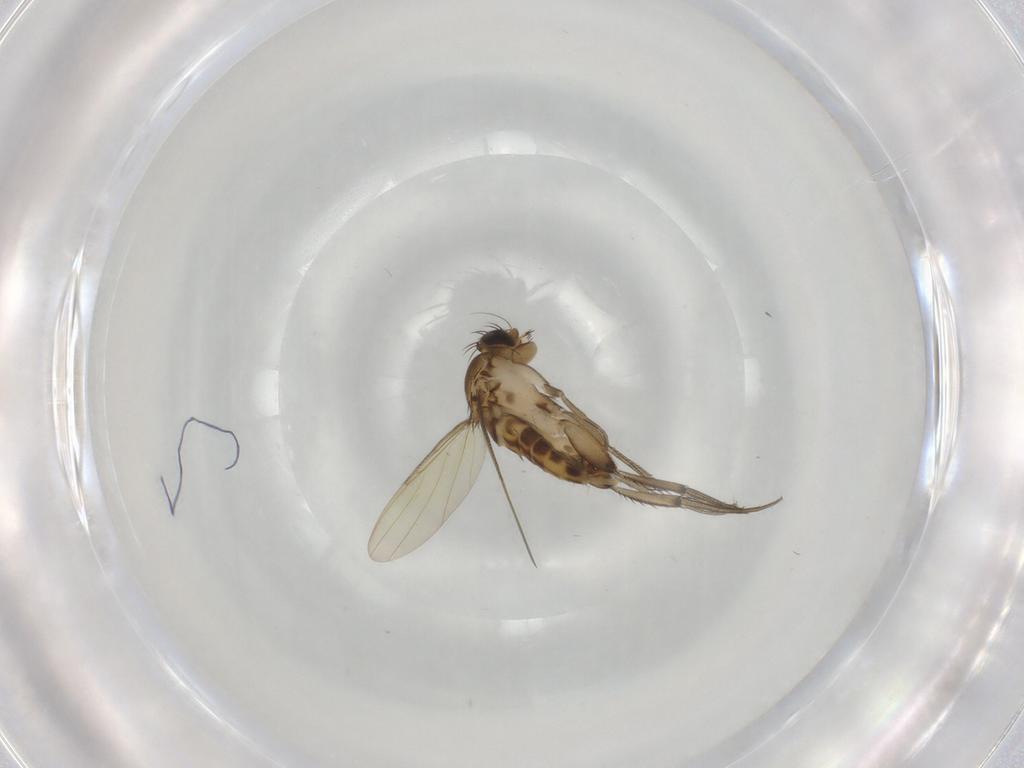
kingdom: Animalia
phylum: Arthropoda
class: Insecta
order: Diptera
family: Phoridae
